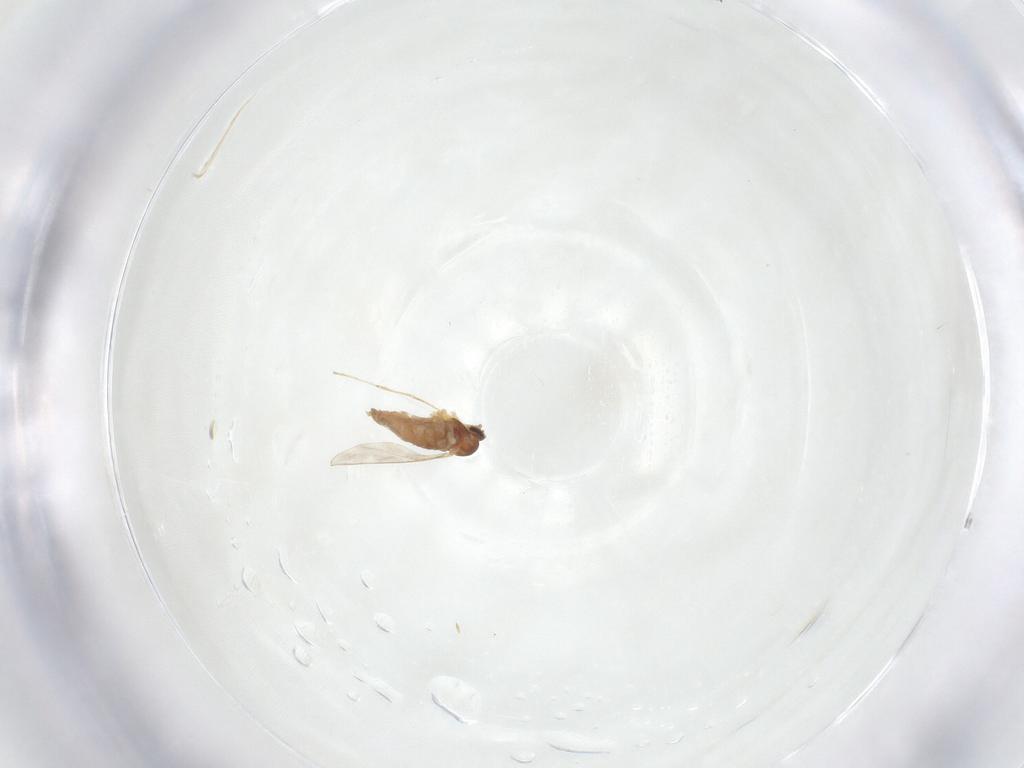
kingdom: Animalia
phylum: Arthropoda
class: Insecta
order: Diptera
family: Cecidomyiidae
